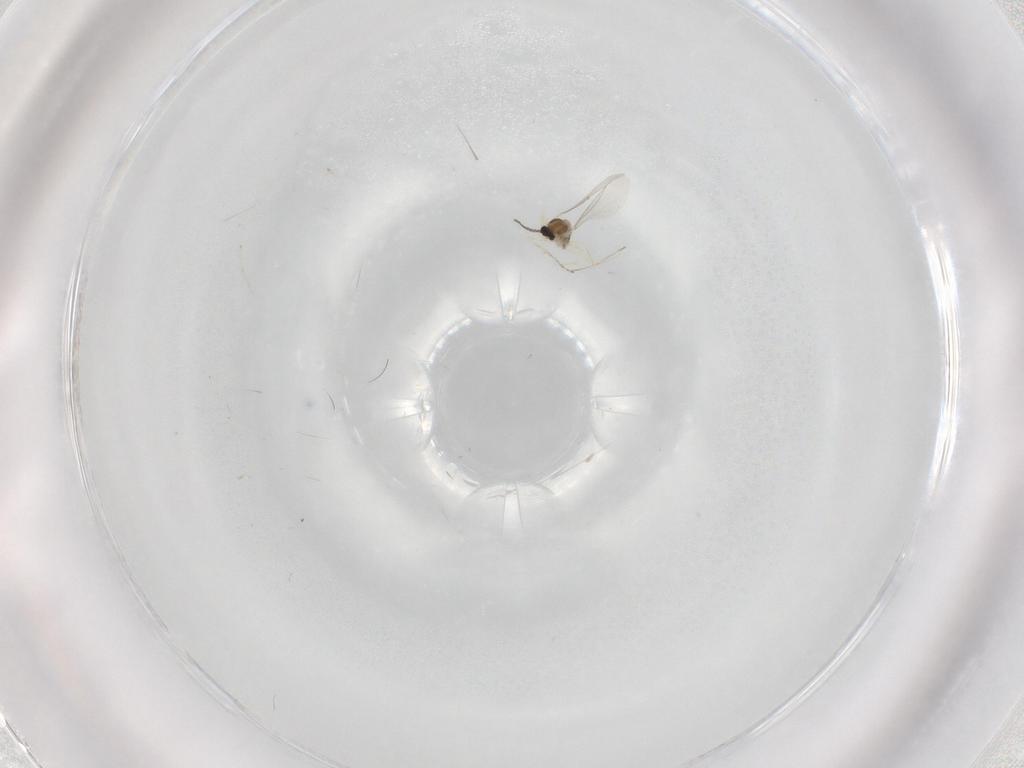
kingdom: Animalia
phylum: Arthropoda
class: Insecta
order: Diptera
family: Cecidomyiidae
